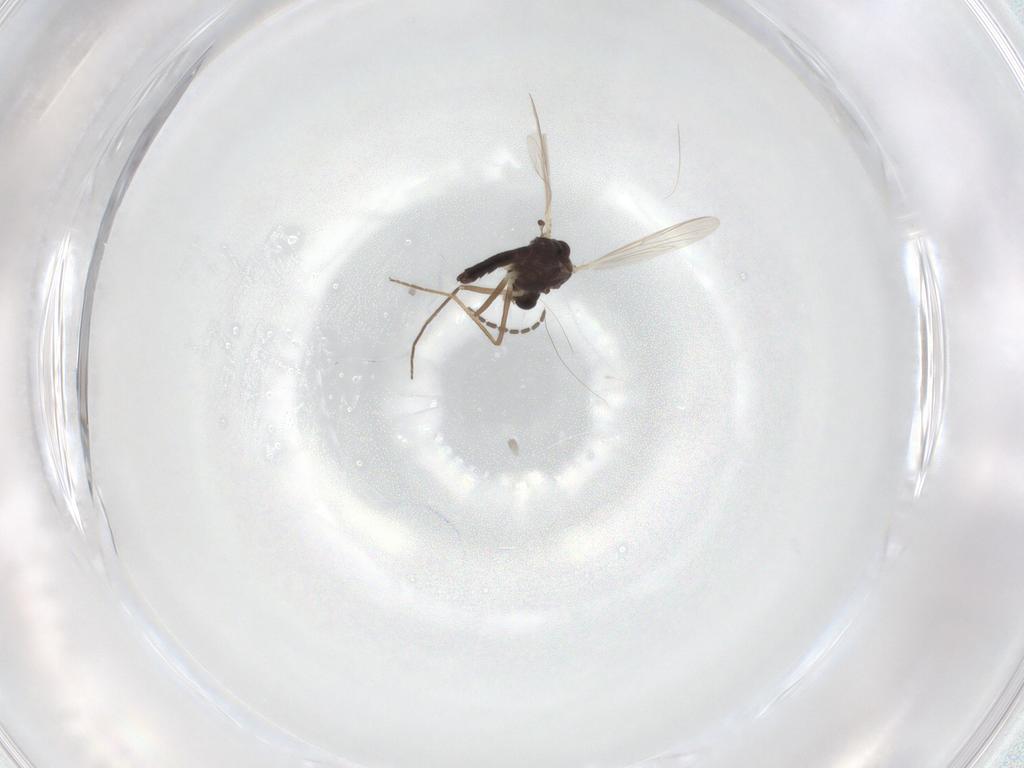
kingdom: Animalia
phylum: Arthropoda
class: Insecta
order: Diptera
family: Chironomidae
